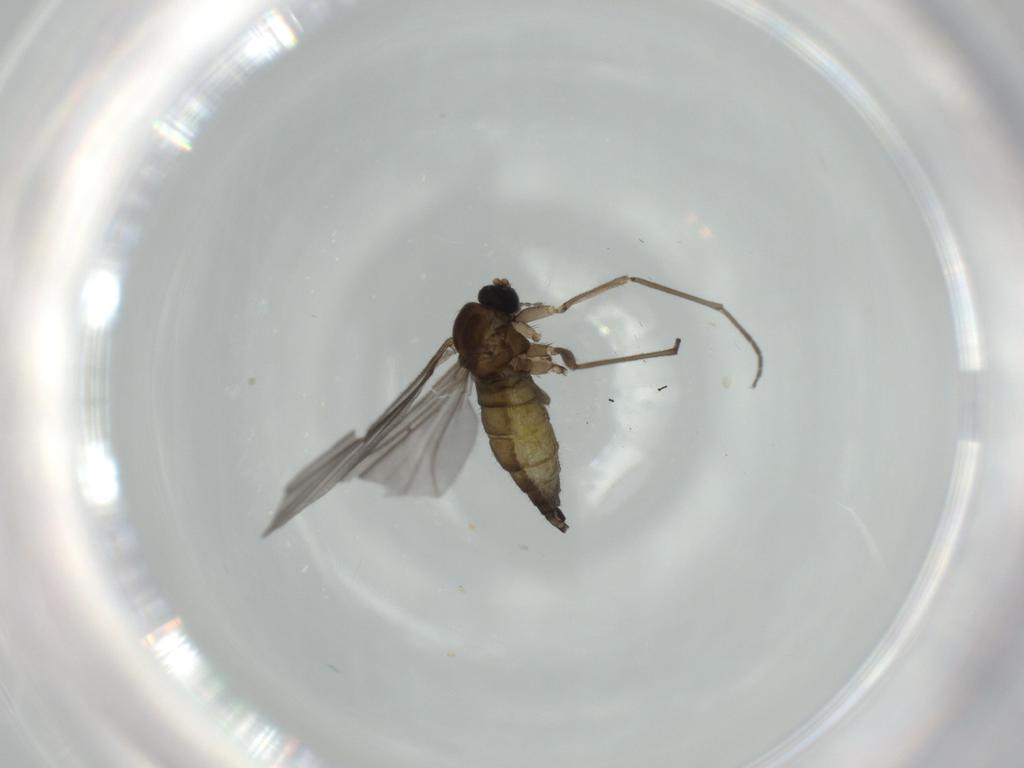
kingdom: Animalia
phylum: Arthropoda
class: Insecta
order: Diptera
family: Sciaridae
